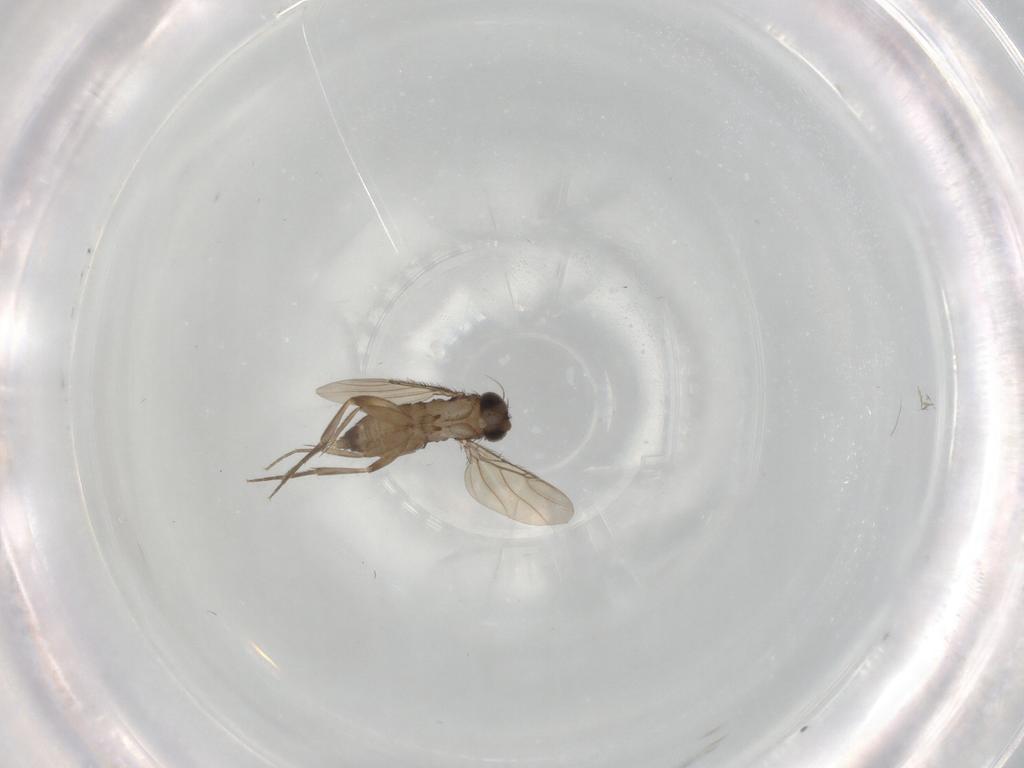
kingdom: Animalia
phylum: Arthropoda
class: Insecta
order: Diptera
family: Phoridae
